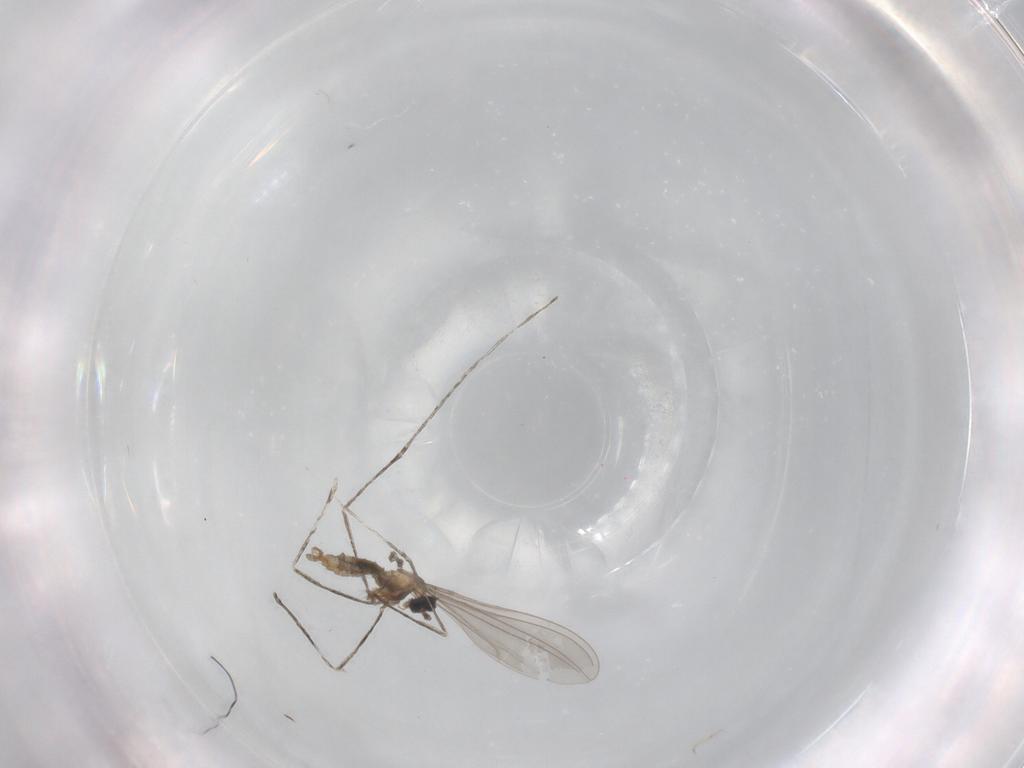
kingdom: Animalia
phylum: Arthropoda
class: Insecta
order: Diptera
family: Cecidomyiidae
